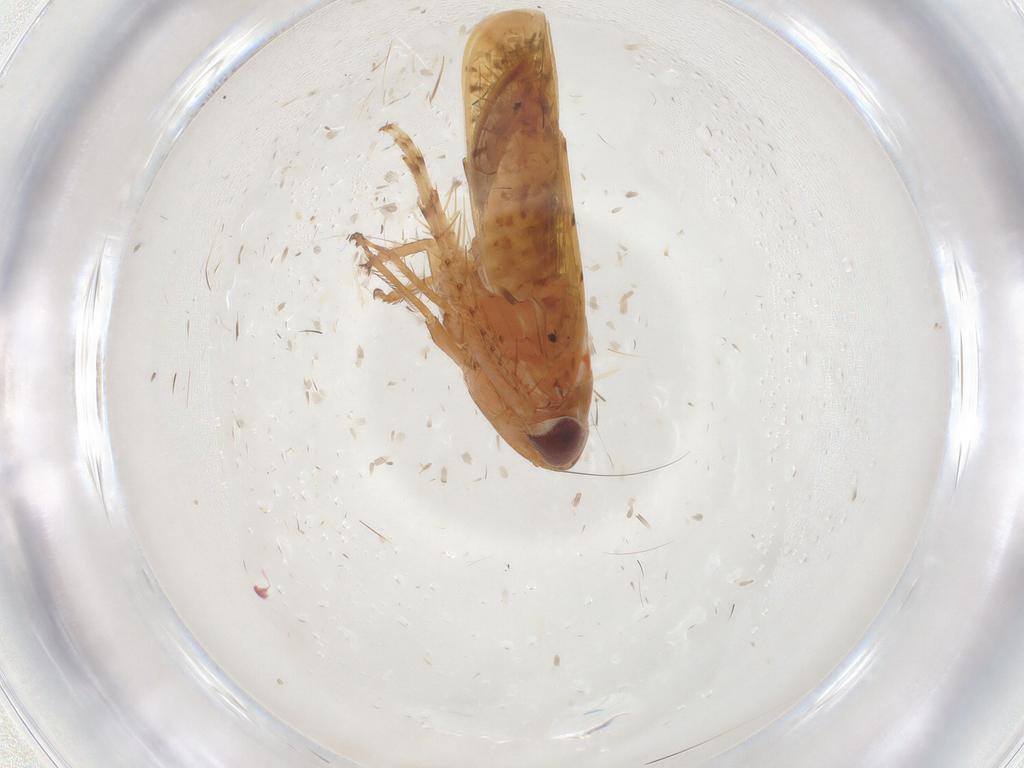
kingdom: Animalia
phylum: Arthropoda
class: Insecta
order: Hemiptera
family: Cicadellidae
